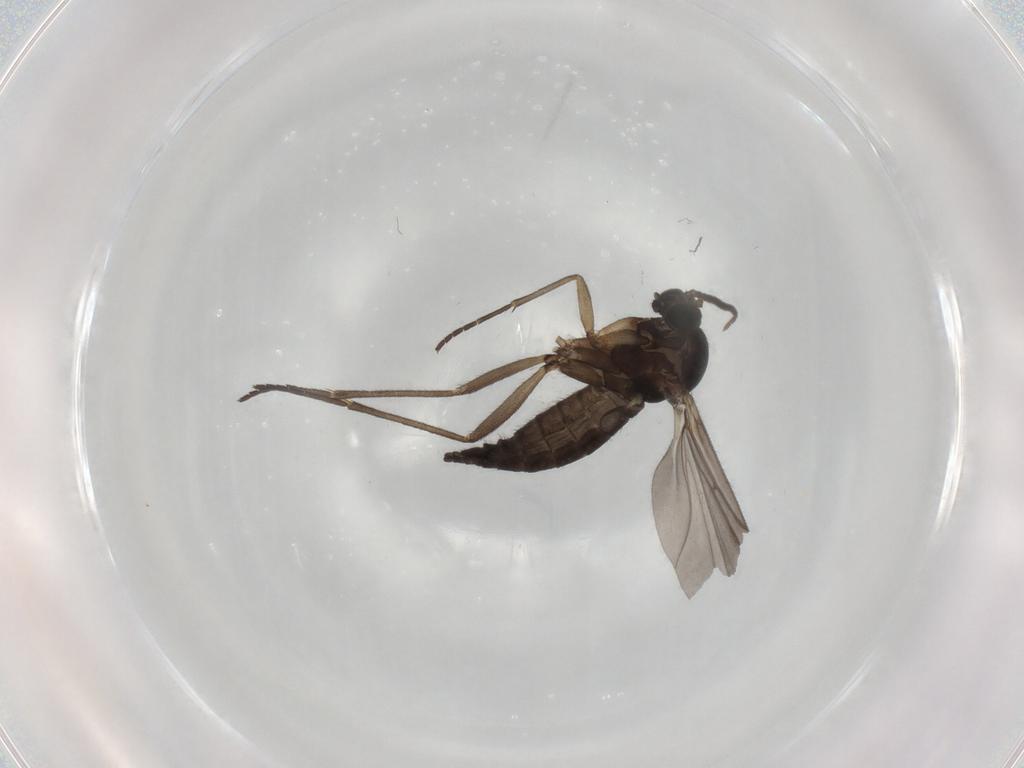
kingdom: Animalia
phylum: Arthropoda
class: Insecta
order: Diptera
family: Sciaridae
